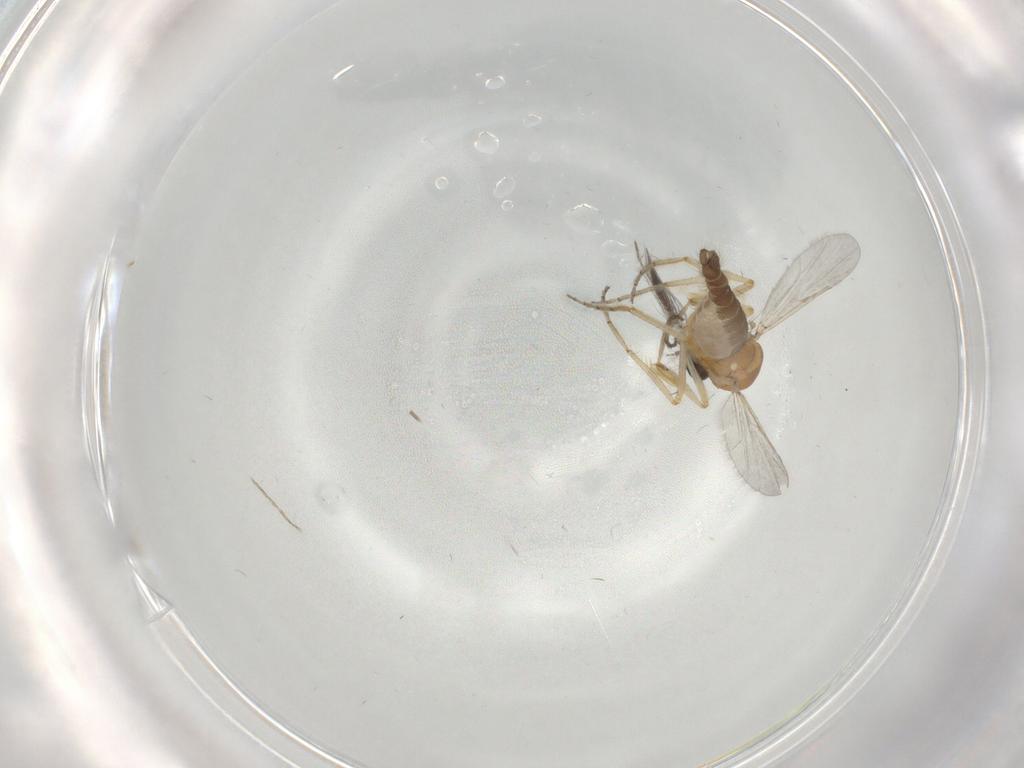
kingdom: Animalia
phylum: Arthropoda
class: Insecta
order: Diptera
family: Ceratopogonidae
